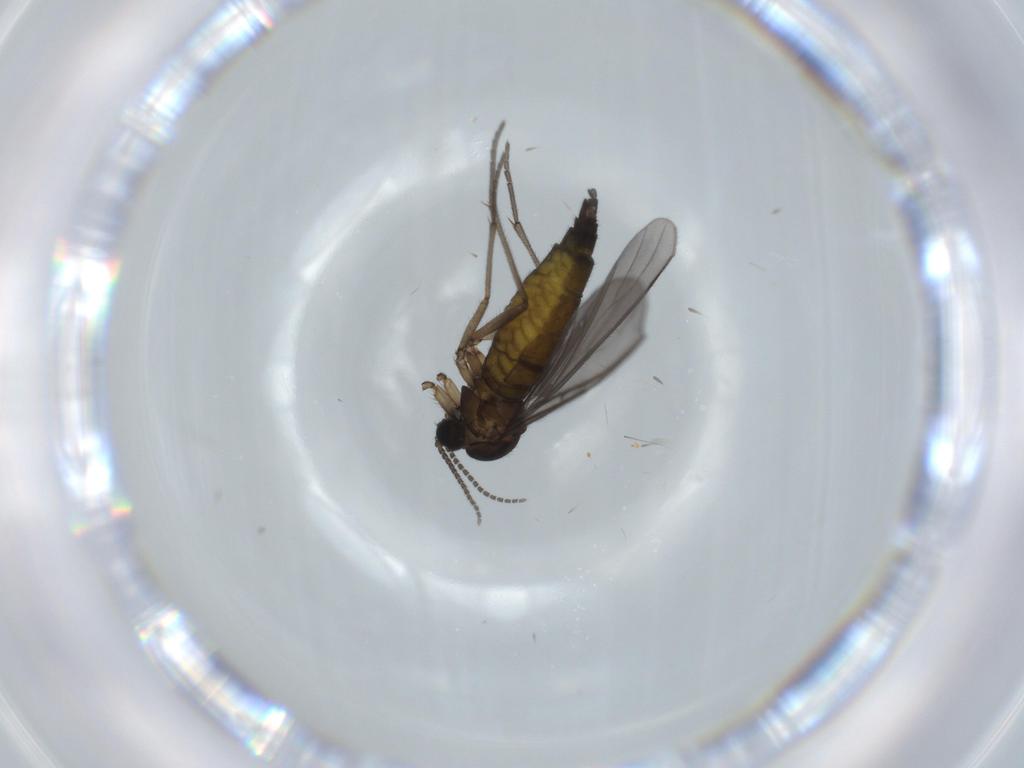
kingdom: Animalia
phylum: Arthropoda
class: Insecta
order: Diptera
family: Sciaridae
